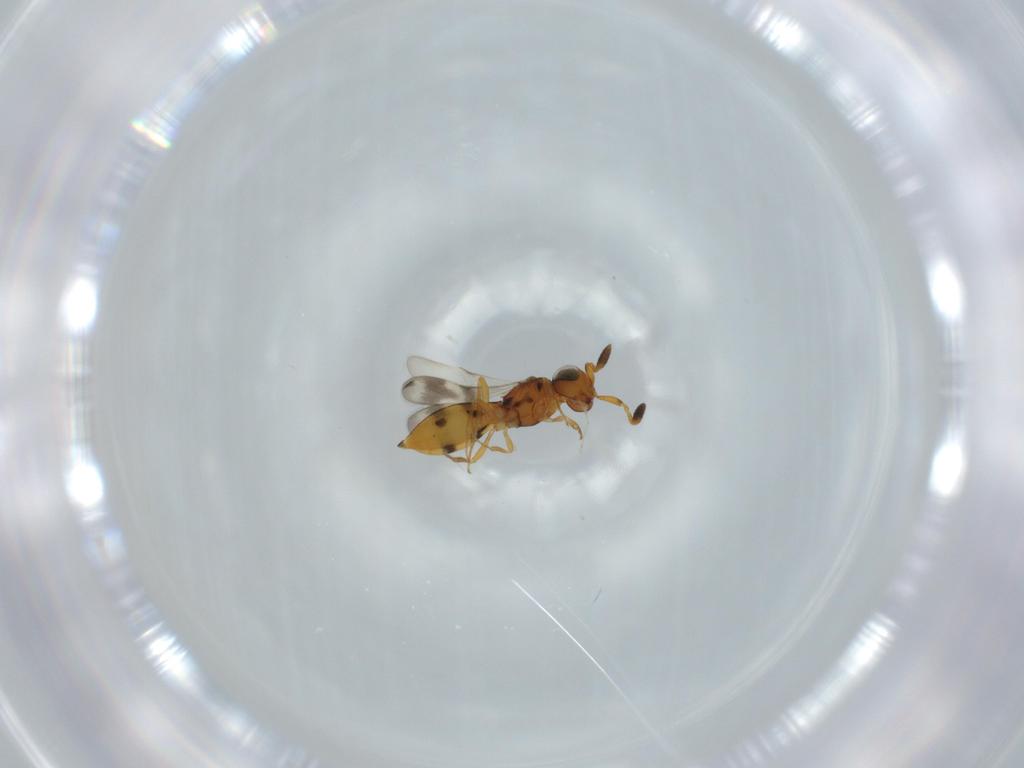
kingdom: Animalia
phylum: Arthropoda
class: Insecta
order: Hymenoptera
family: Scelionidae
